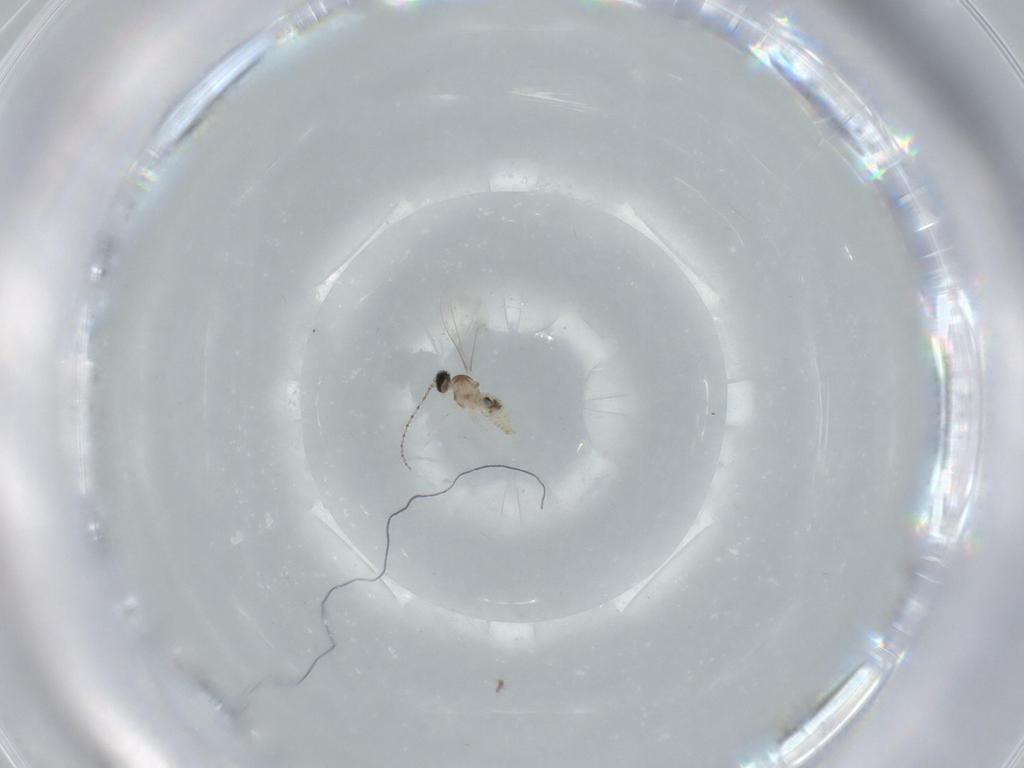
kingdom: Animalia
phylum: Arthropoda
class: Insecta
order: Diptera
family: Cecidomyiidae
